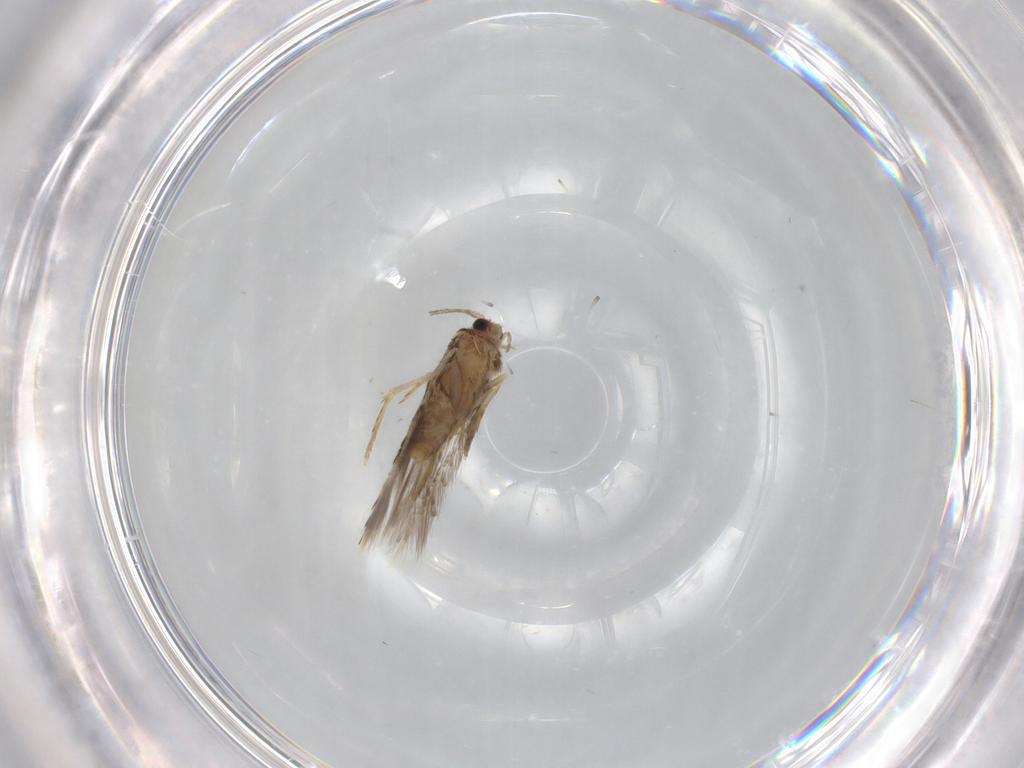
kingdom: Animalia
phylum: Arthropoda
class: Insecta
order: Lepidoptera
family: Nepticulidae
